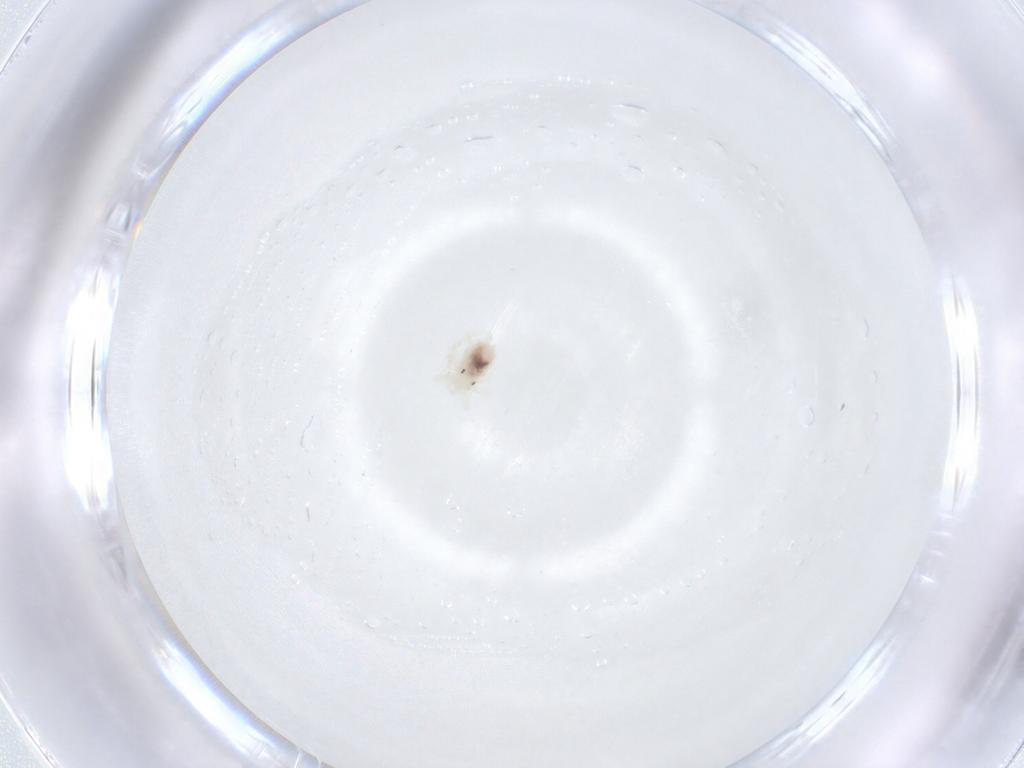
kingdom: Animalia
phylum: Arthropoda
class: Arachnida
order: Trombidiformes
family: Anystidae
